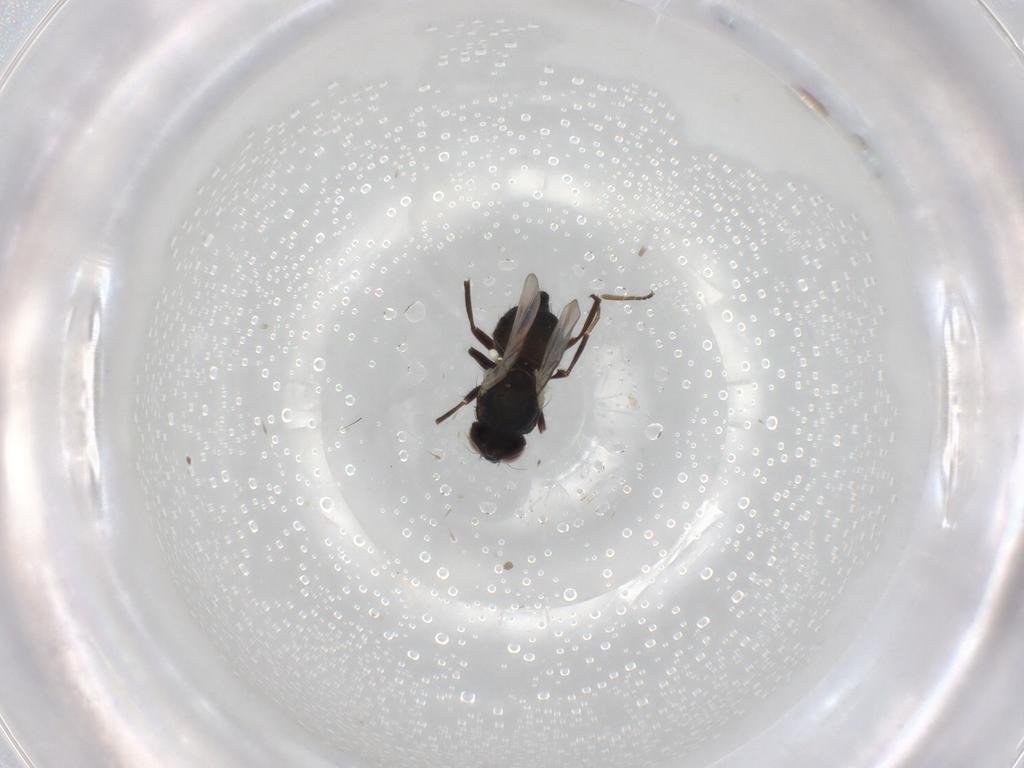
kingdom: Animalia
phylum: Arthropoda
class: Insecta
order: Diptera
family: Agromyzidae
